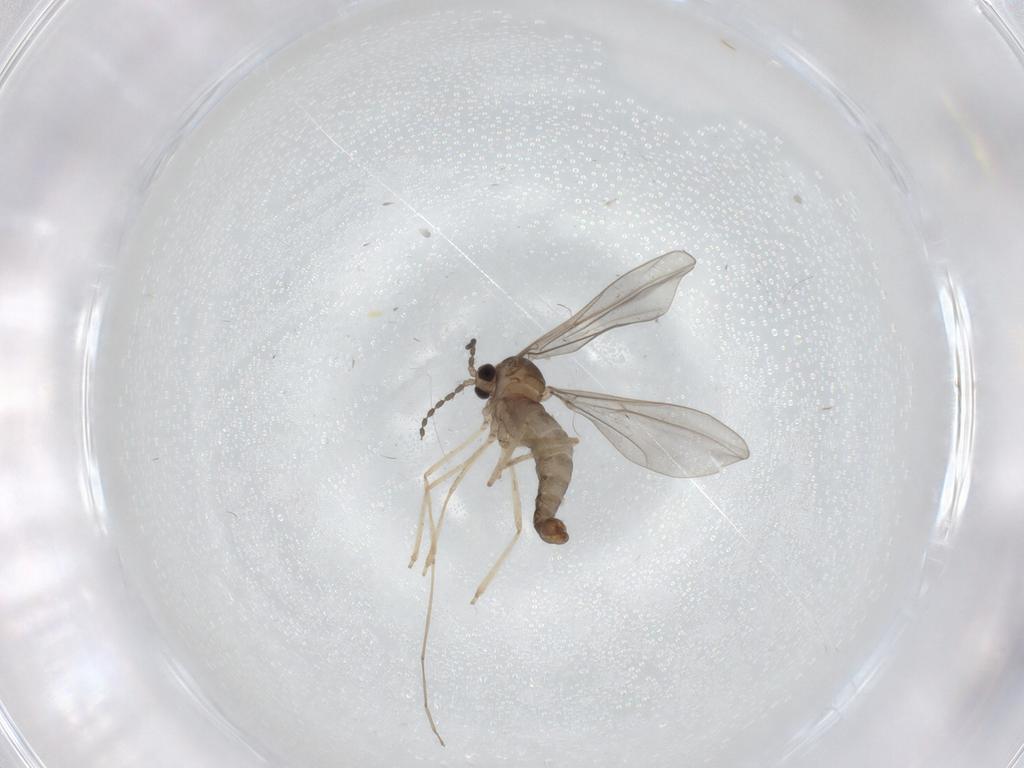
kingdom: Animalia
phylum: Arthropoda
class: Insecta
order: Diptera
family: Cecidomyiidae
